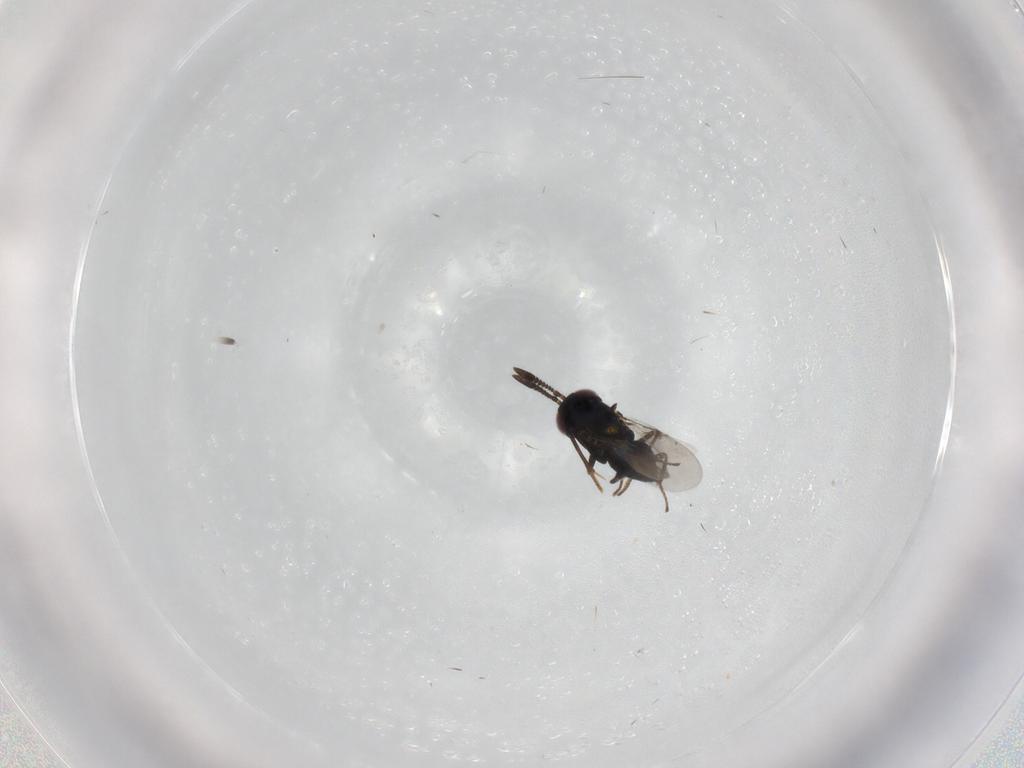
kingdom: Animalia
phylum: Arthropoda
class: Insecta
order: Hymenoptera
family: Encyrtidae
